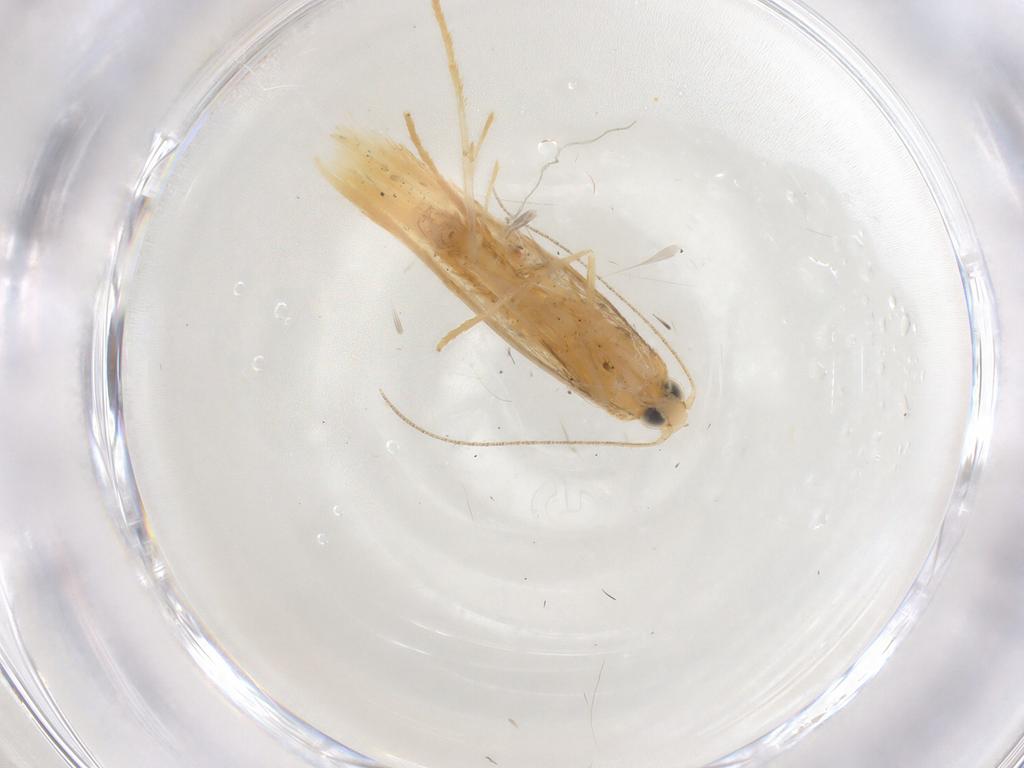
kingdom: Animalia
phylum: Arthropoda
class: Insecta
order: Lepidoptera
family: Tischeriidae
